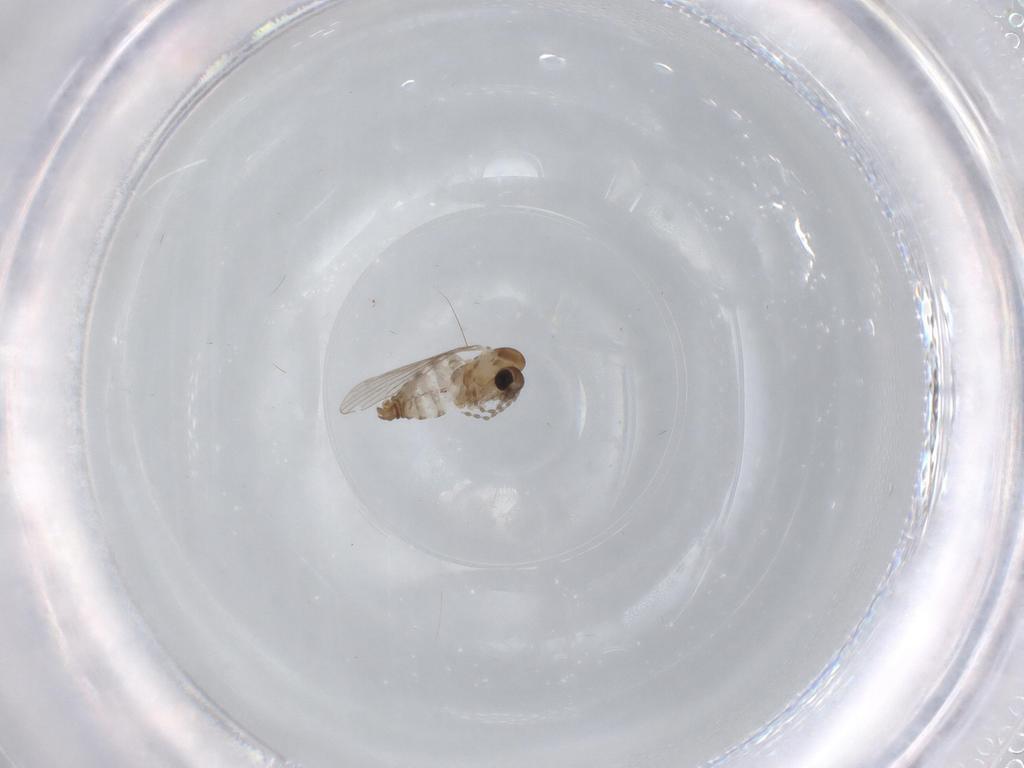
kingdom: Animalia
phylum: Arthropoda
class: Insecta
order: Diptera
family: Psychodidae
